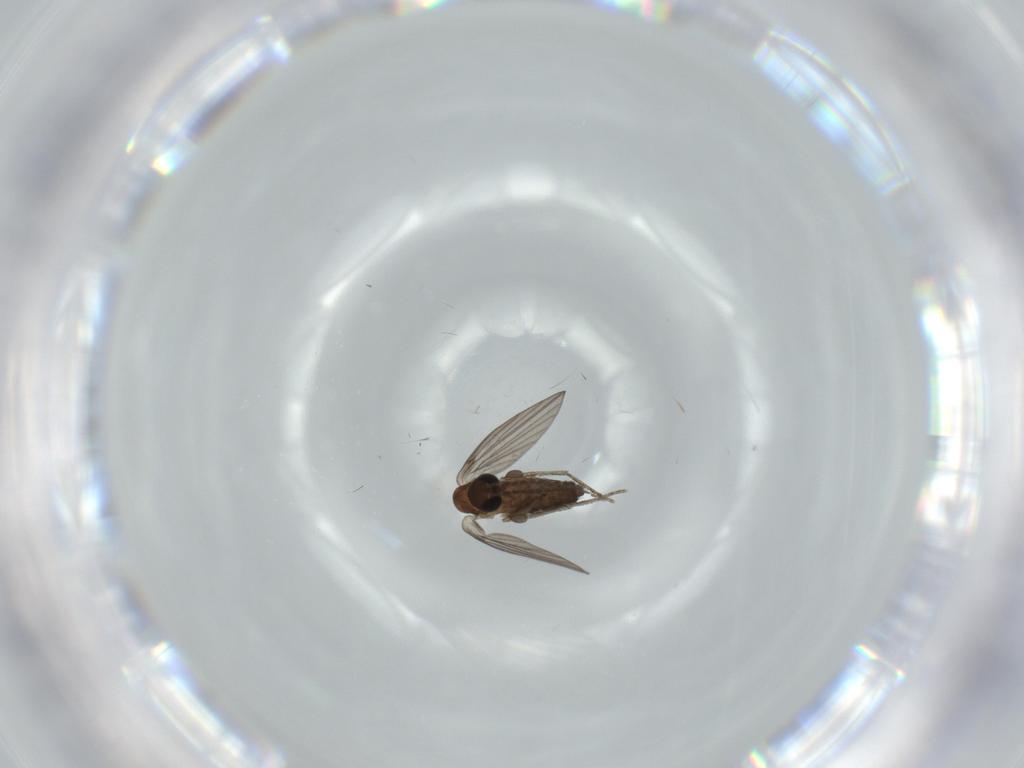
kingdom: Animalia
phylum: Arthropoda
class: Insecta
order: Diptera
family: Psychodidae
